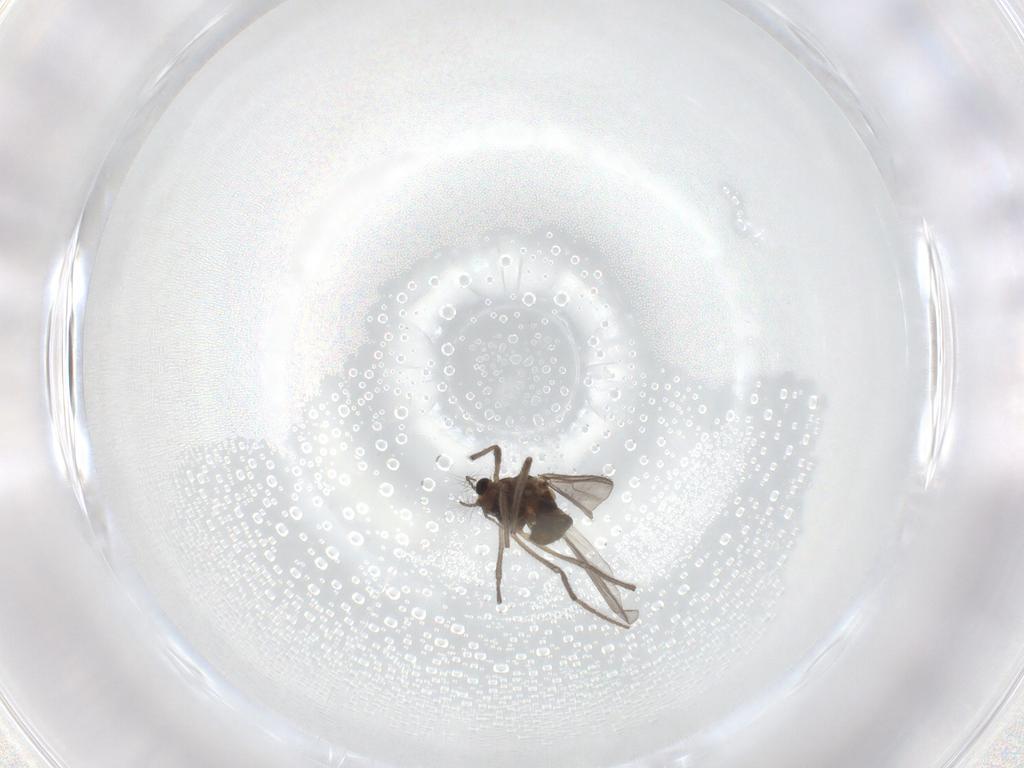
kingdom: Animalia
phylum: Arthropoda
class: Insecta
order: Diptera
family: Chironomidae
